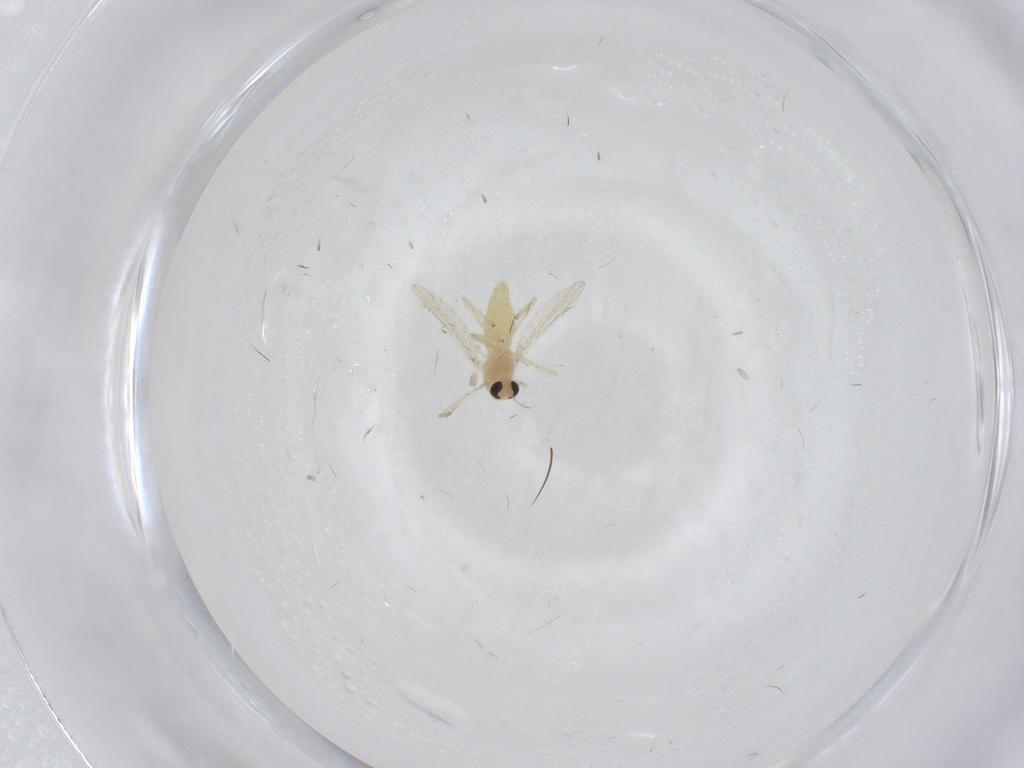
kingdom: Animalia
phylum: Arthropoda
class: Insecta
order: Diptera
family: Chironomidae
